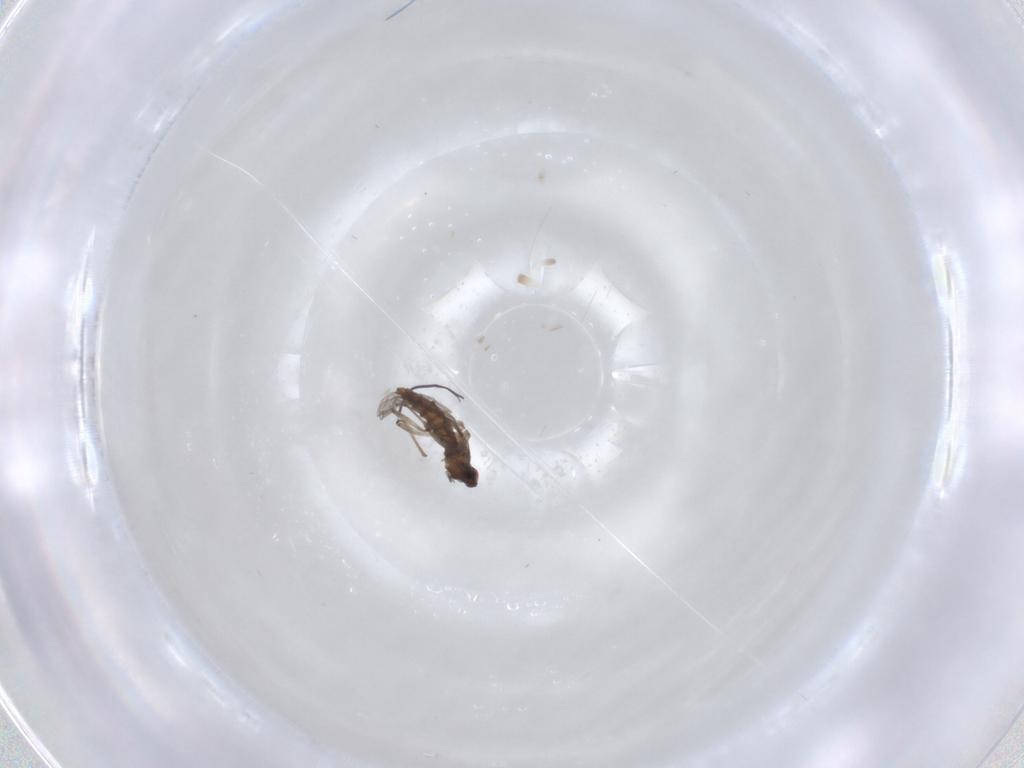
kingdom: Animalia
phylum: Arthropoda
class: Insecta
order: Diptera
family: Cecidomyiidae
